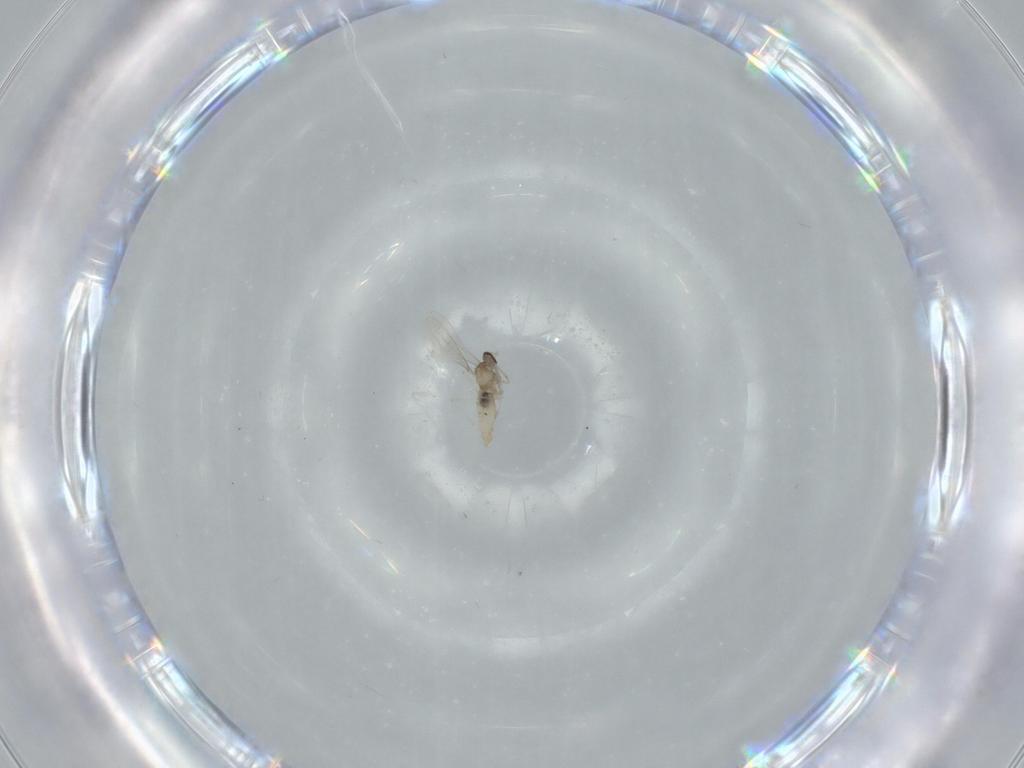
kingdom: Animalia
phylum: Arthropoda
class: Insecta
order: Diptera
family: Cecidomyiidae
